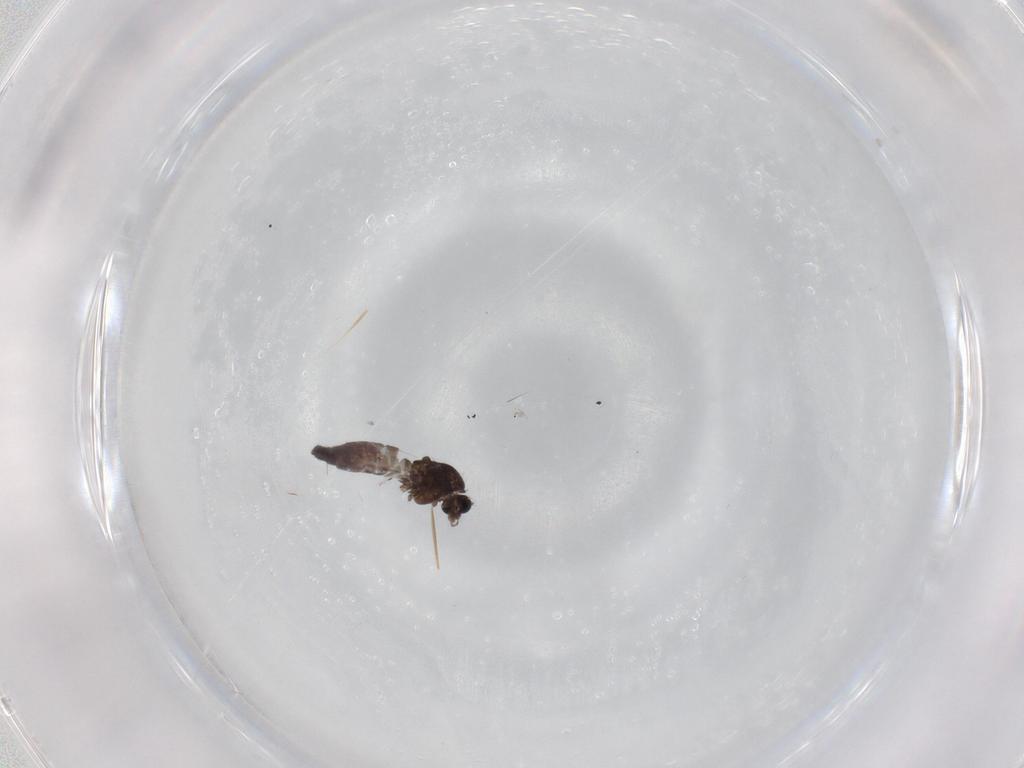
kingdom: Animalia
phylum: Arthropoda
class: Insecta
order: Diptera
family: Chironomidae
